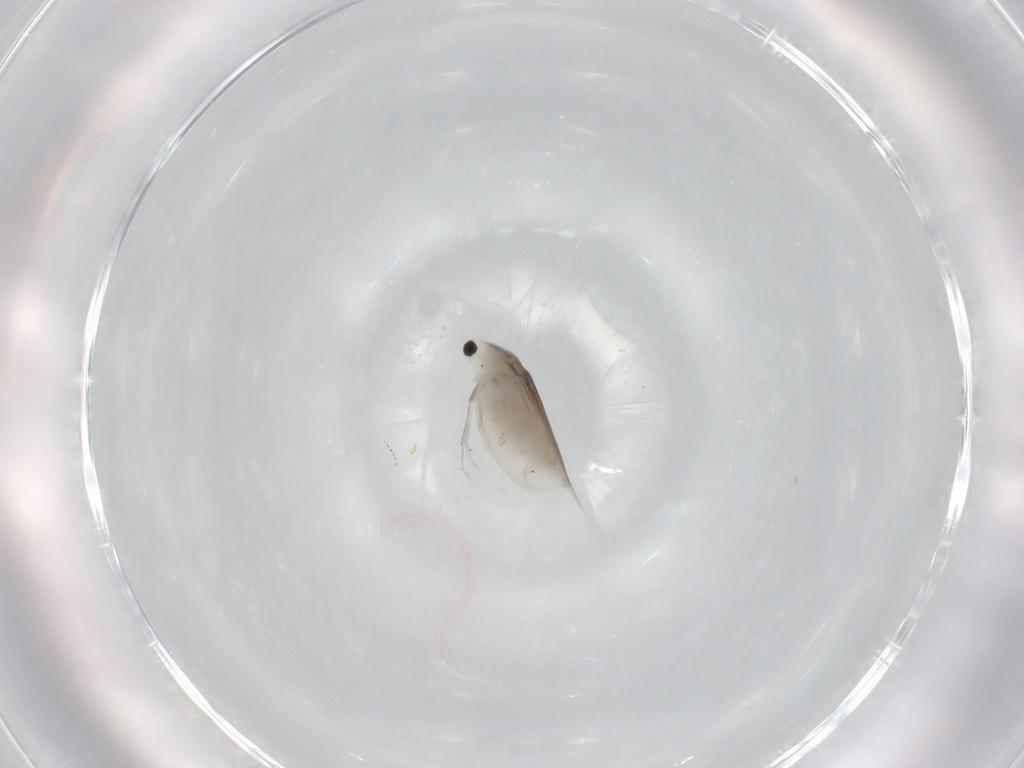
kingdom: Animalia
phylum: Arthropoda
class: Branchiopoda
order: Diplostraca
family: Daphniidae
